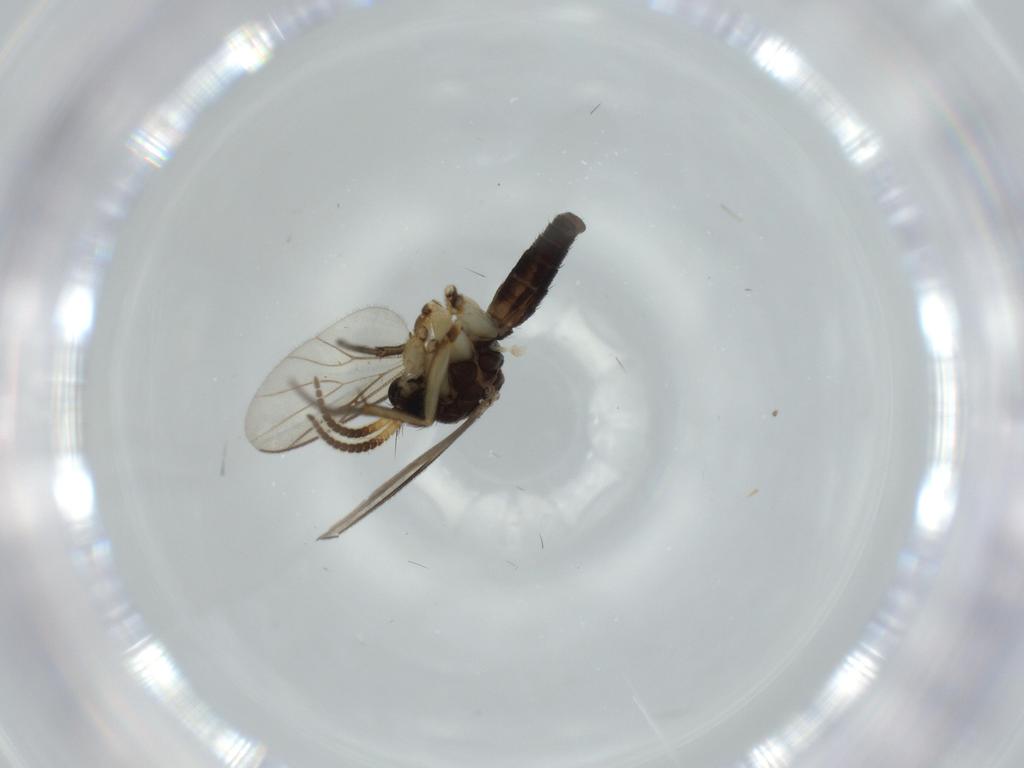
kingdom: Animalia
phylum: Arthropoda
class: Insecta
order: Diptera
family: Mycetophilidae
